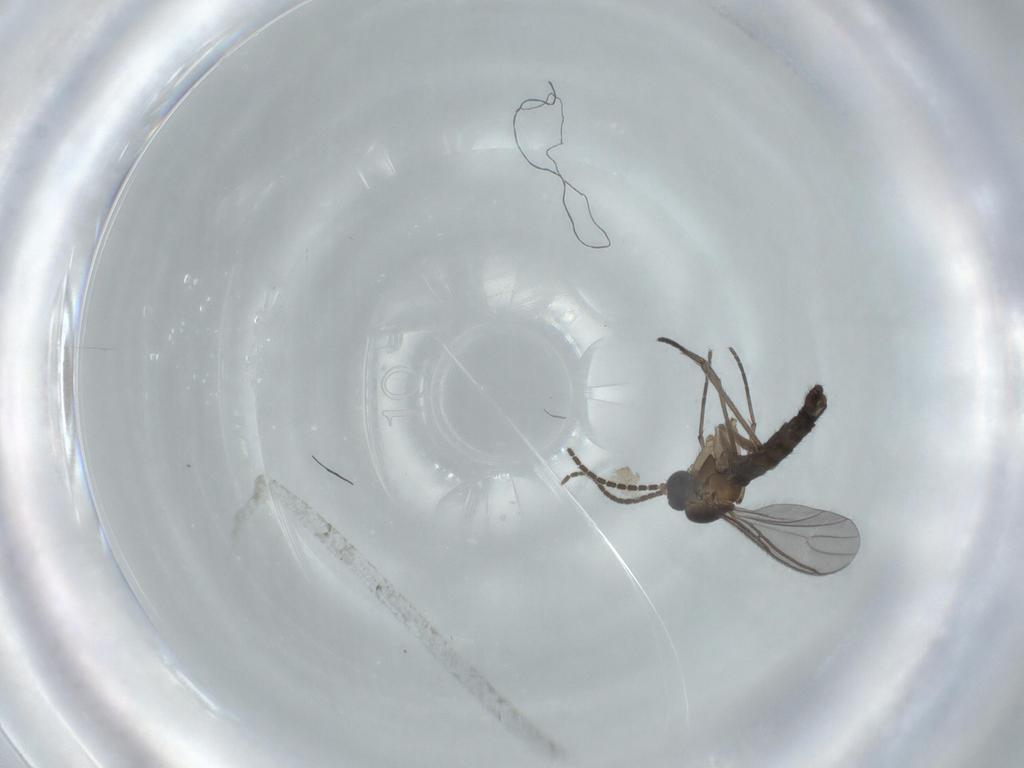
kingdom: Animalia
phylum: Arthropoda
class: Insecta
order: Diptera
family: Sciaridae
